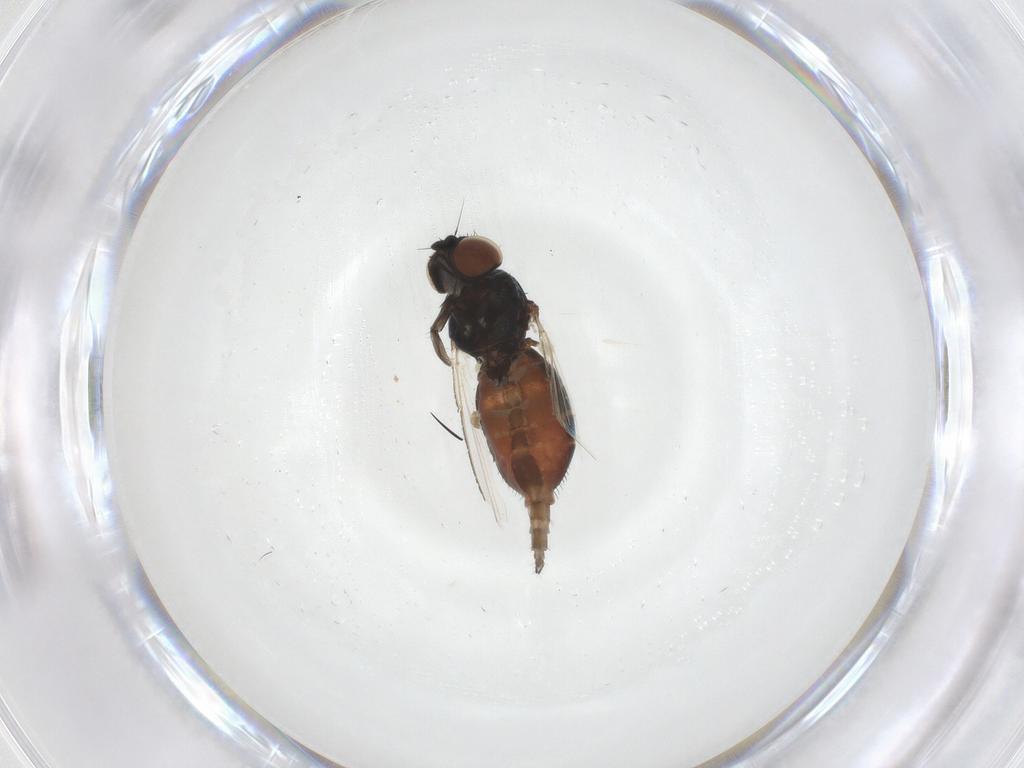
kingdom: Animalia
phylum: Arthropoda
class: Insecta
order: Diptera
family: Milichiidae
